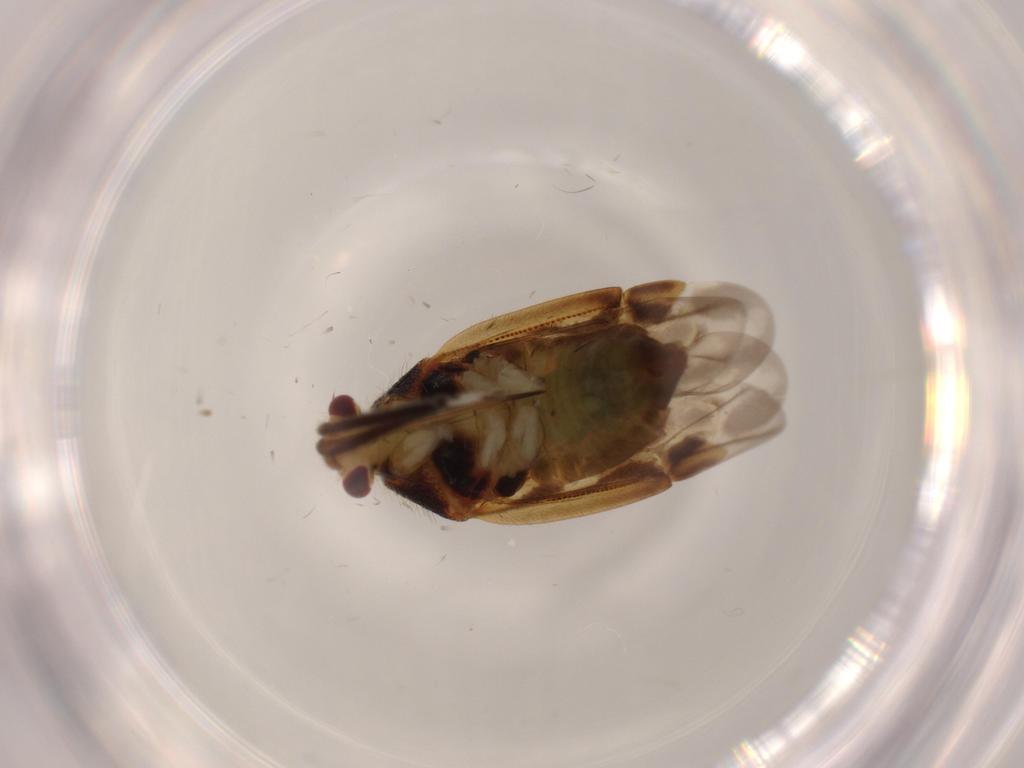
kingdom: Animalia
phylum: Arthropoda
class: Insecta
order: Hemiptera
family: Miridae
